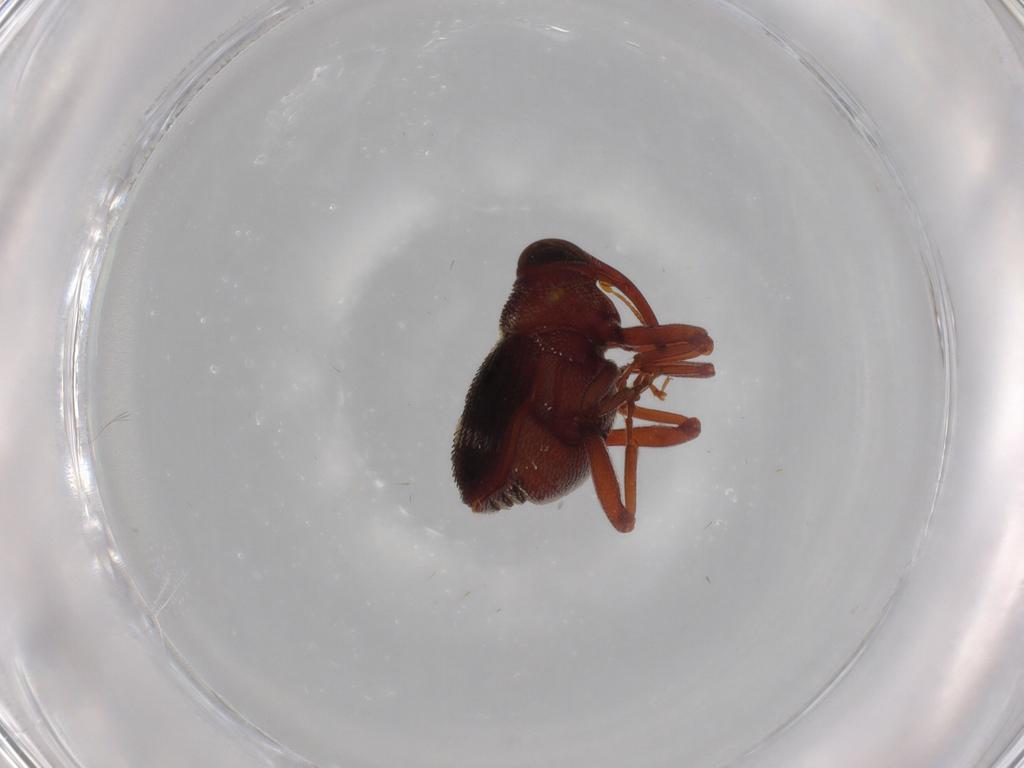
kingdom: Animalia
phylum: Arthropoda
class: Insecta
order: Coleoptera
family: Curculionidae
